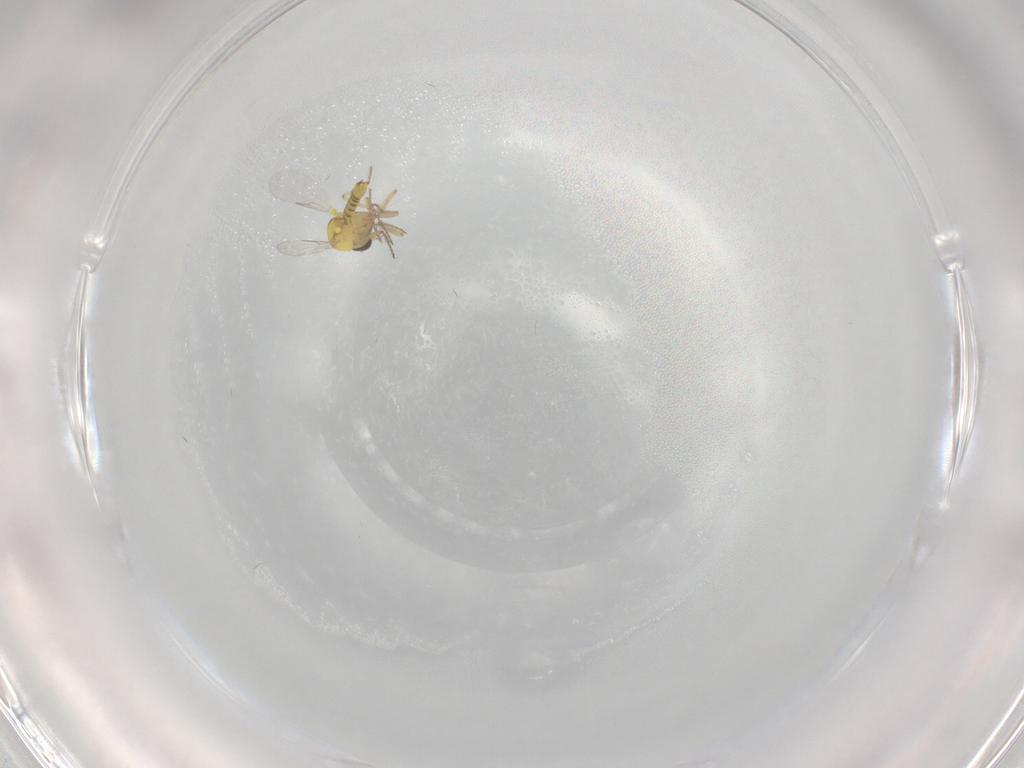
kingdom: Animalia
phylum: Arthropoda
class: Insecta
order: Diptera
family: Ceratopogonidae
